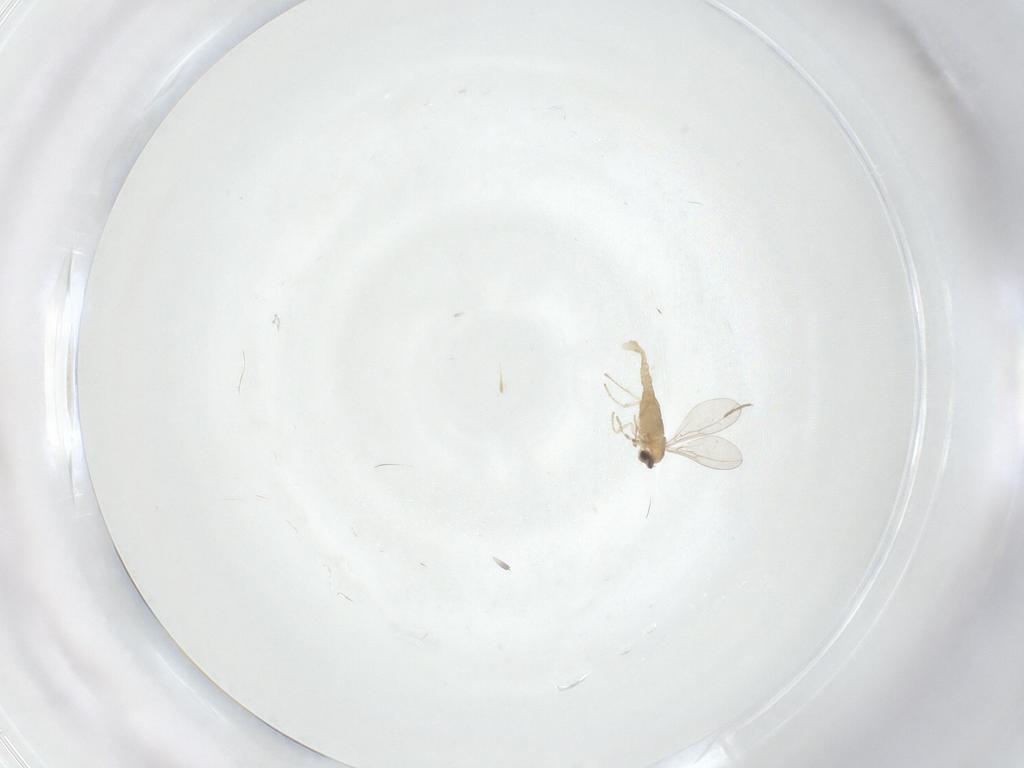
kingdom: Animalia
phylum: Arthropoda
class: Insecta
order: Diptera
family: Cecidomyiidae
